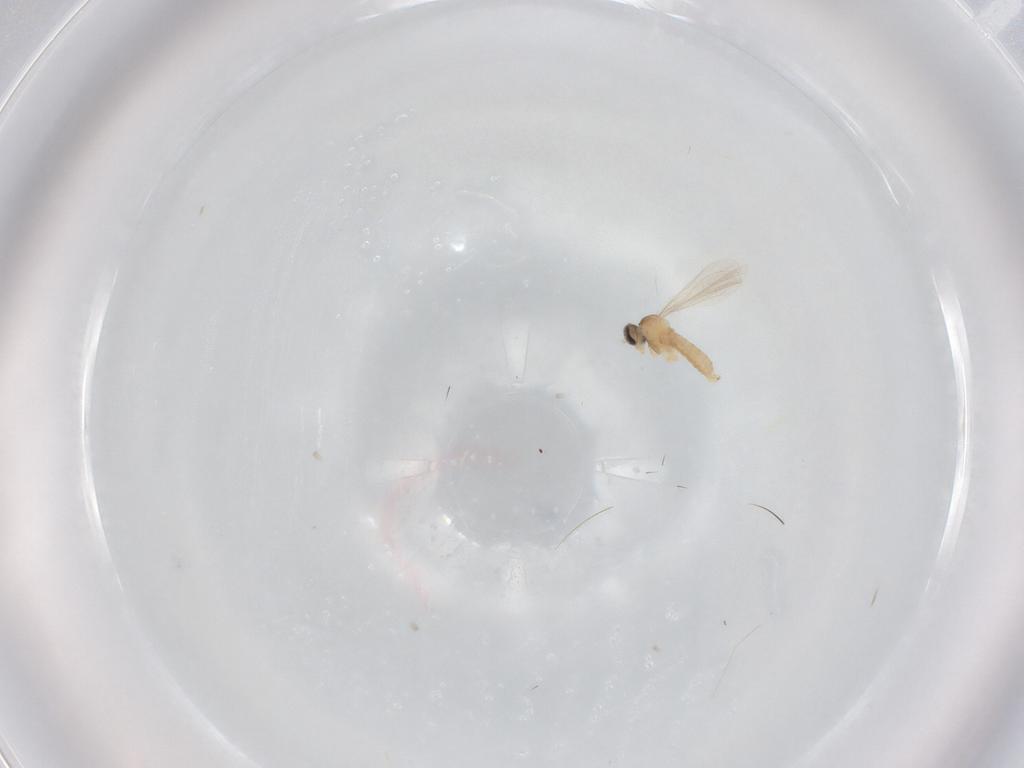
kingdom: Animalia
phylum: Arthropoda
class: Insecta
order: Diptera
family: Cecidomyiidae
